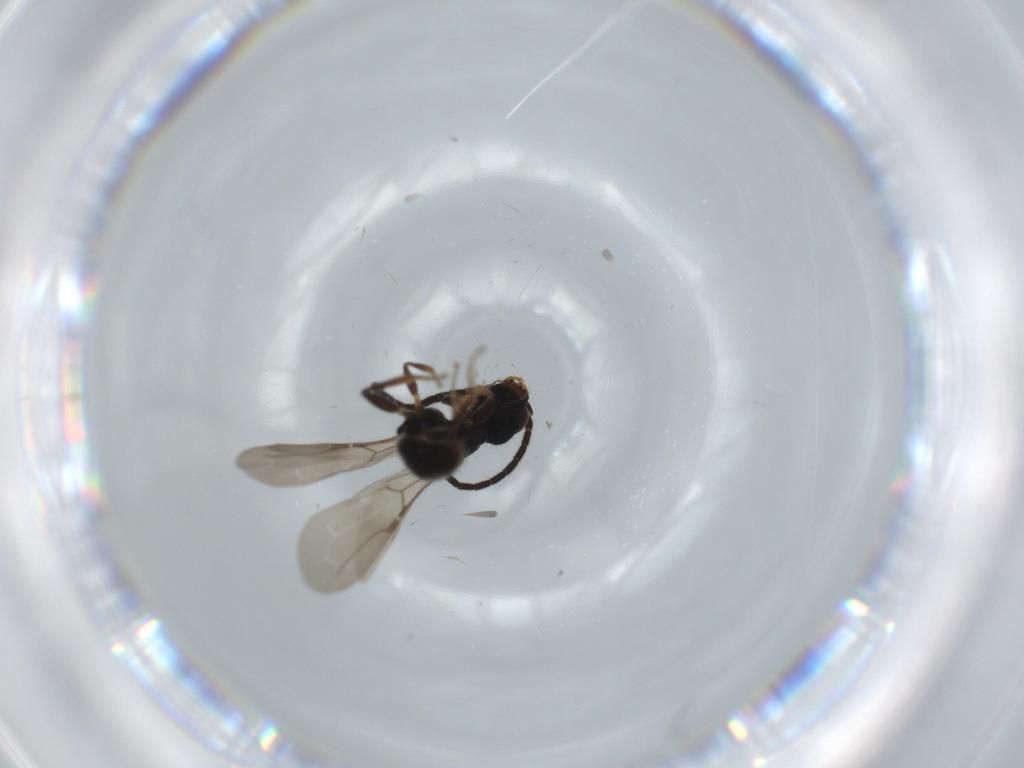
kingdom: Animalia
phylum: Arthropoda
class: Insecta
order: Hymenoptera
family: Bethylidae
